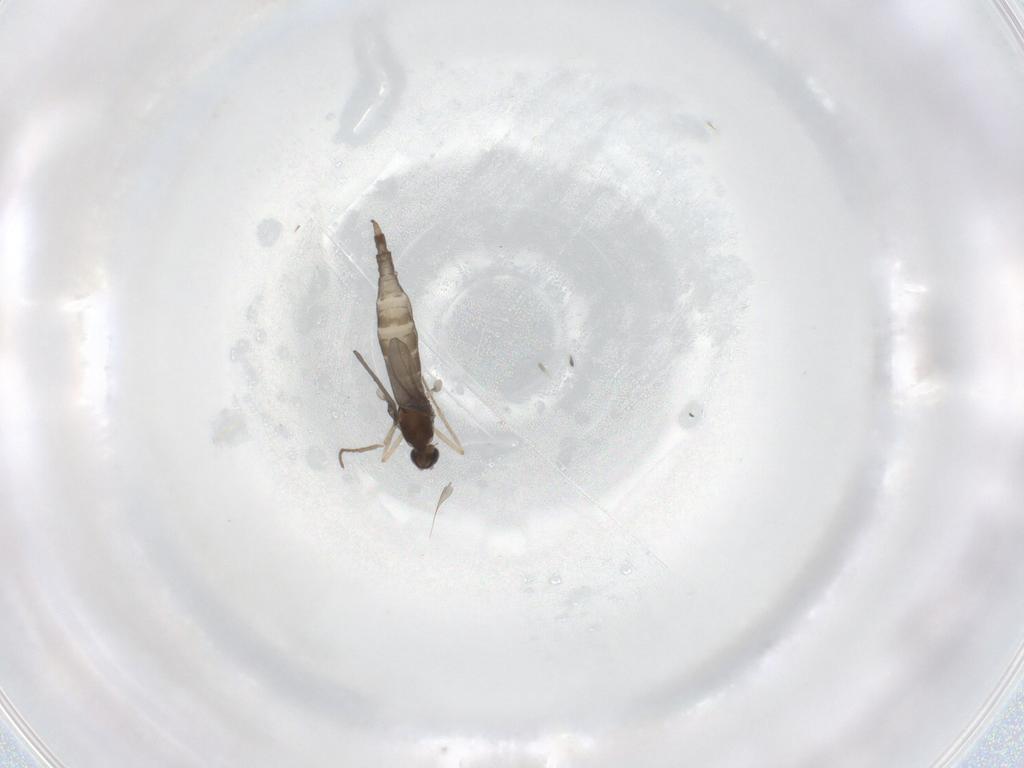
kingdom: Animalia
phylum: Arthropoda
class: Insecta
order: Diptera
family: Cecidomyiidae
